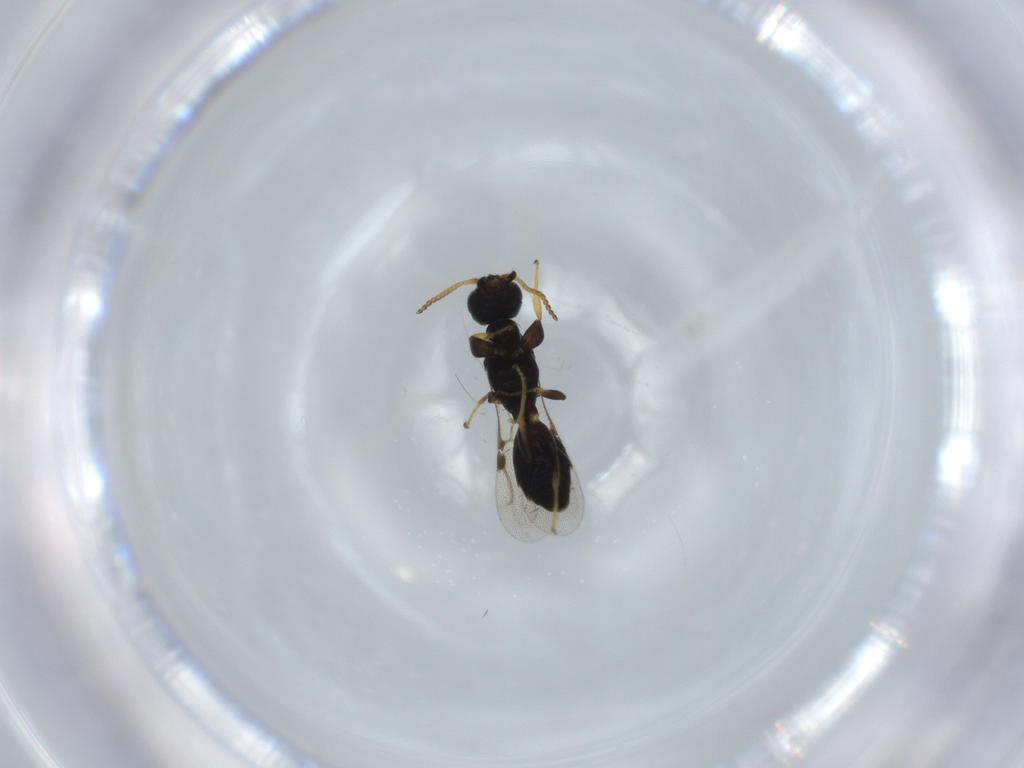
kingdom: Animalia
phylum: Arthropoda
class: Insecta
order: Hymenoptera
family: Bethylidae
